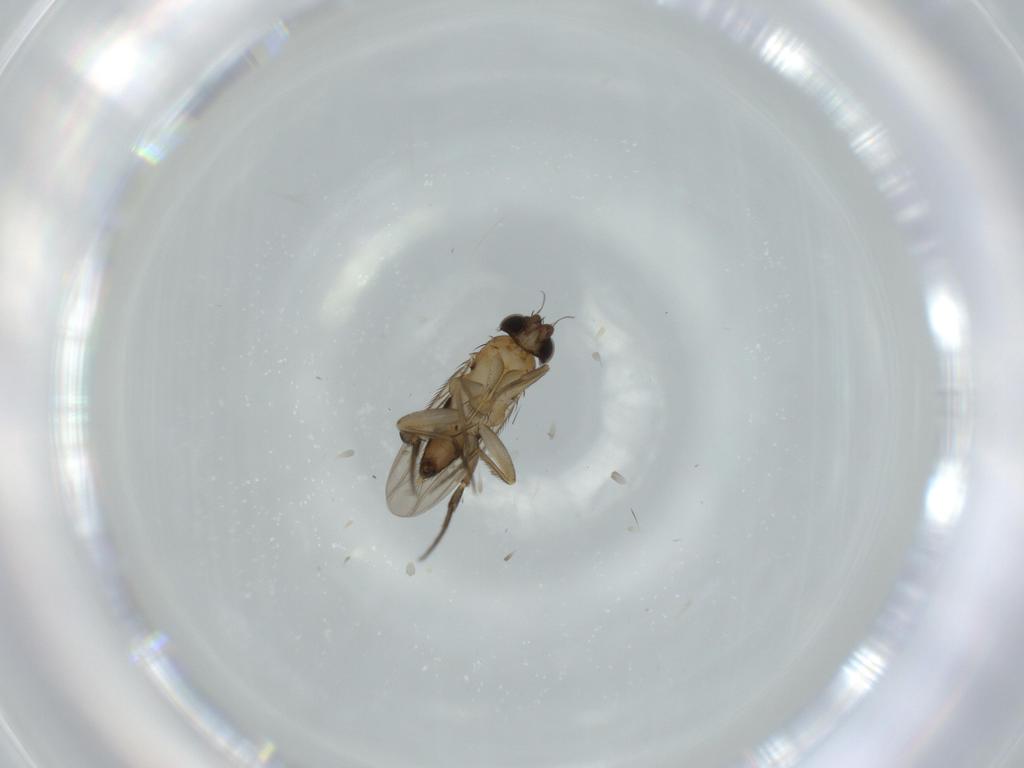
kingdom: Animalia
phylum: Arthropoda
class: Insecta
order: Diptera
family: Phoridae
